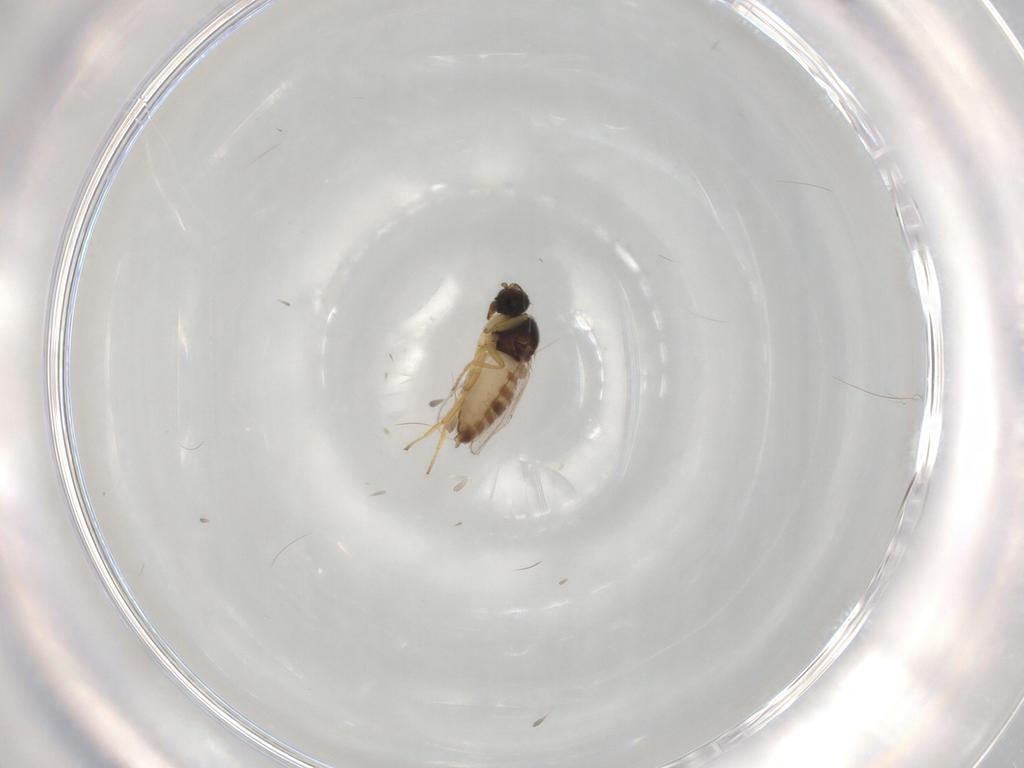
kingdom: Animalia
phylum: Arthropoda
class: Insecta
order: Diptera
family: Hybotidae
